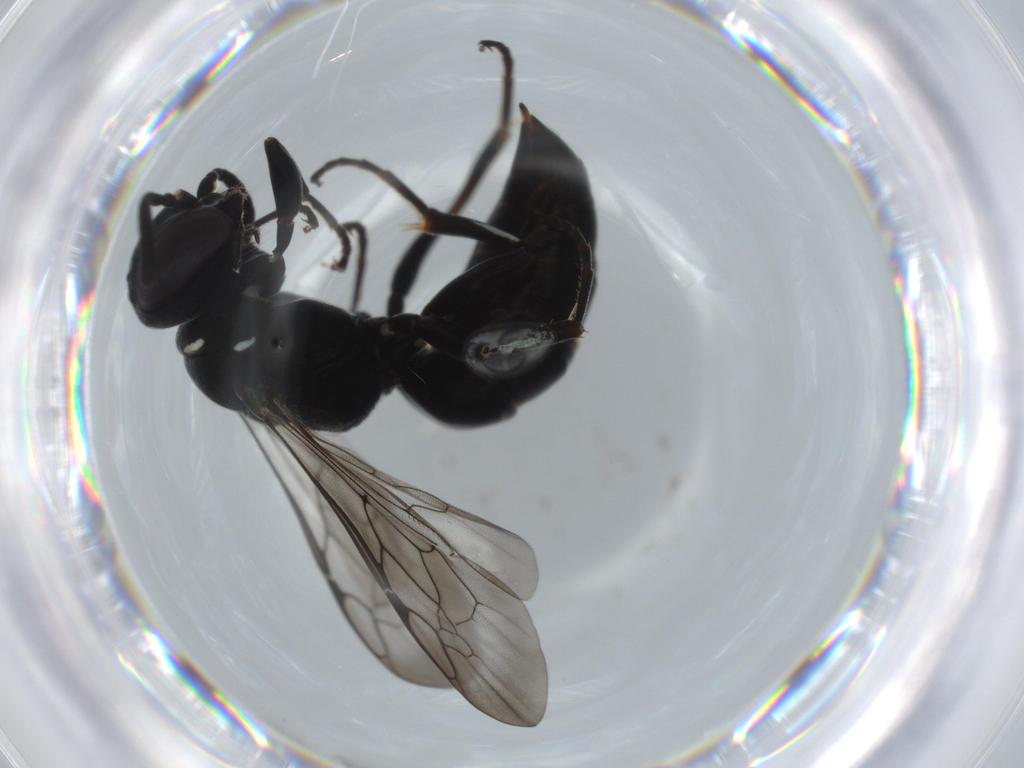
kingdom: Animalia
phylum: Arthropoda
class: Insecta
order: Hymenoptera
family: Crabronidae
